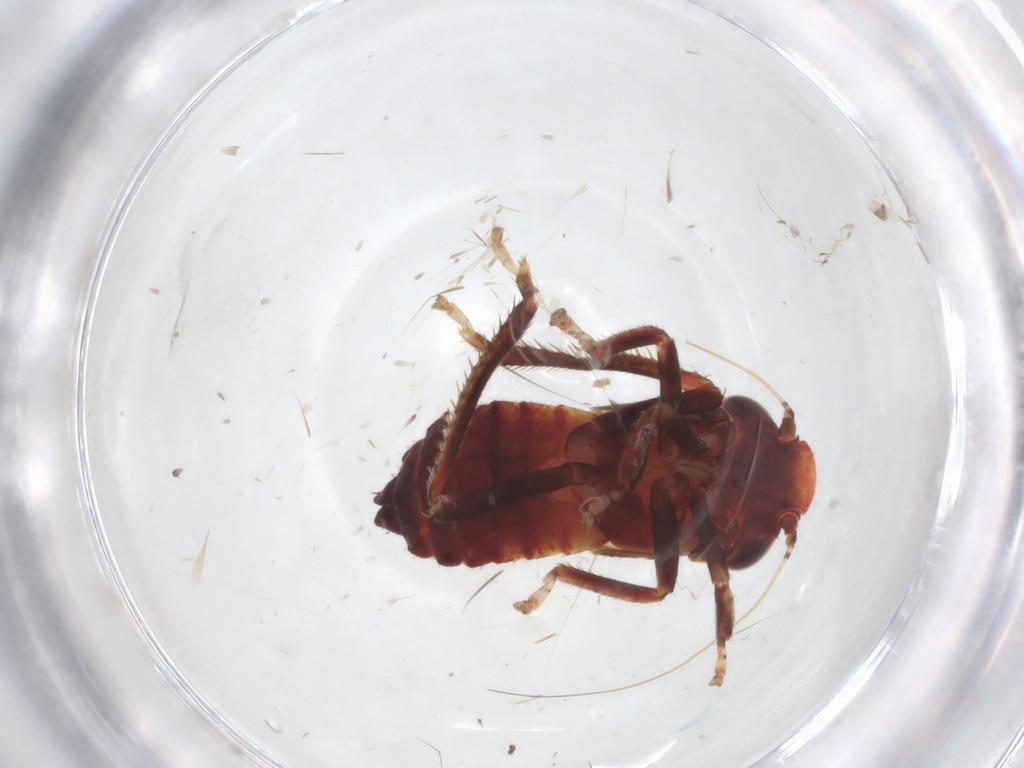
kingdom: Animalia
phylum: Arthropoda
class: Insecta
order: Hemiptera
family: Cicadellidae
